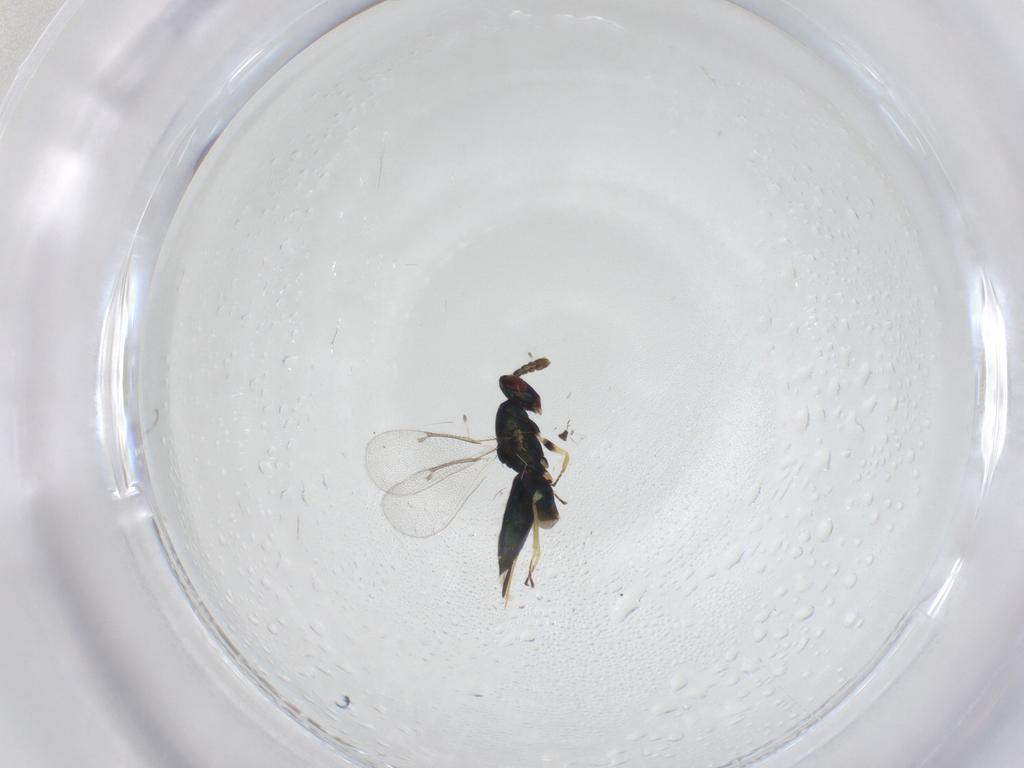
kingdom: Animalia
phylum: Arthropoda
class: Insecta
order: Hymenoptera
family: Eulophidae
